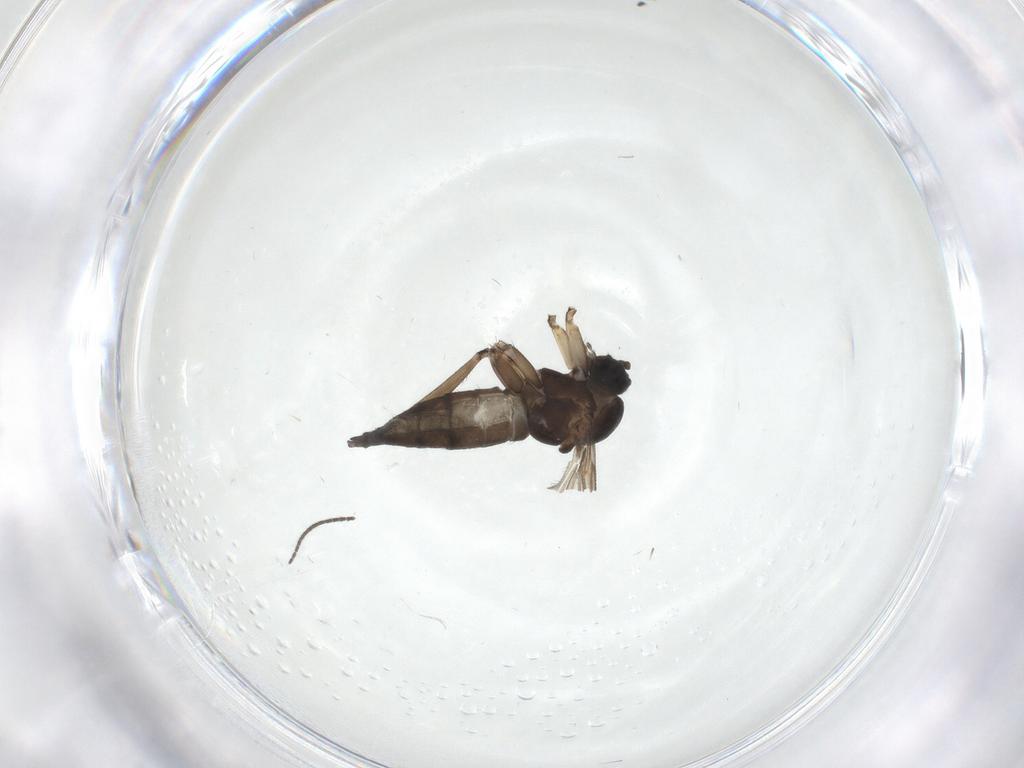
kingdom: Animalia
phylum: Arthropoda
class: Insecta
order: Diptera
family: Sciaridae
